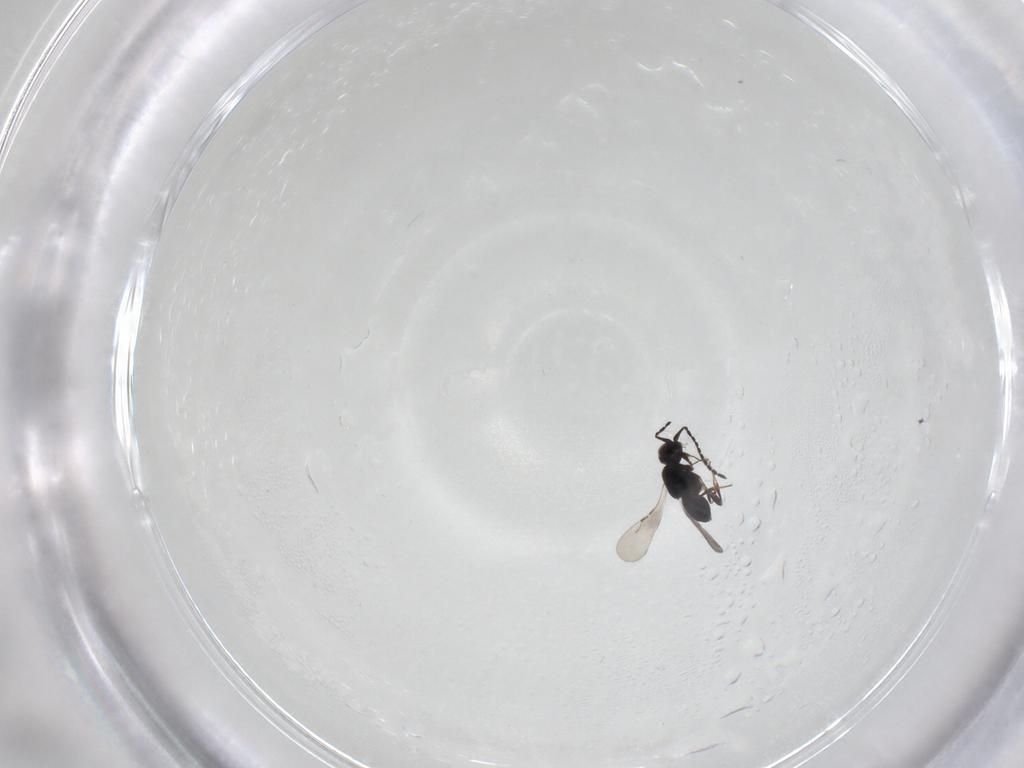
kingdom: Animalia
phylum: Arthropoda
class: Insecta
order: Hymenoptera
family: Ceraphronidae
